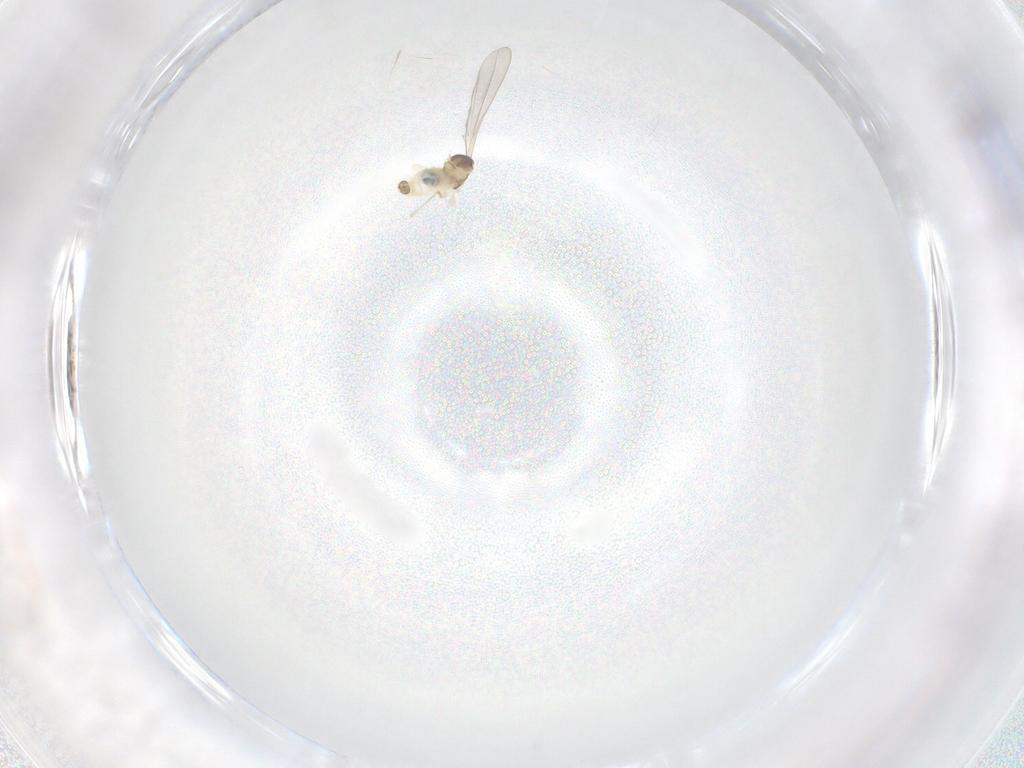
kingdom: Animalia
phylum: Arthropoda
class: Insecta
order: Diptera
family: Cecidomyiidae
